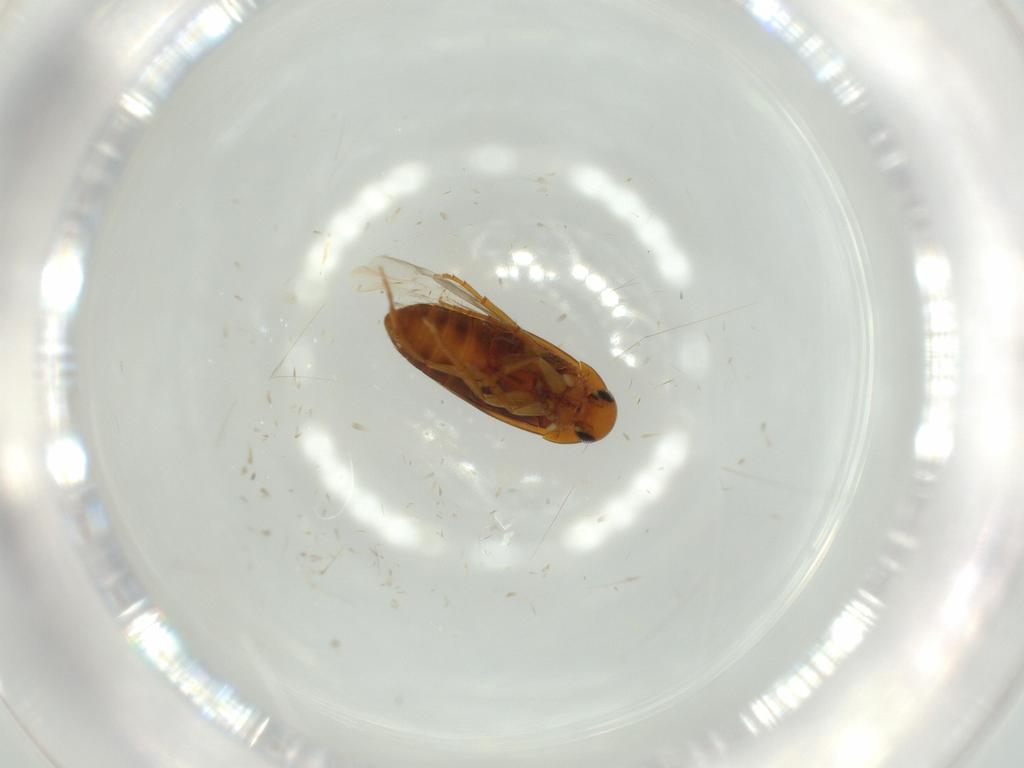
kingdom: Animalia
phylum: Arthropoda
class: Insecta
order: Coleoptera
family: Scraptiidae
